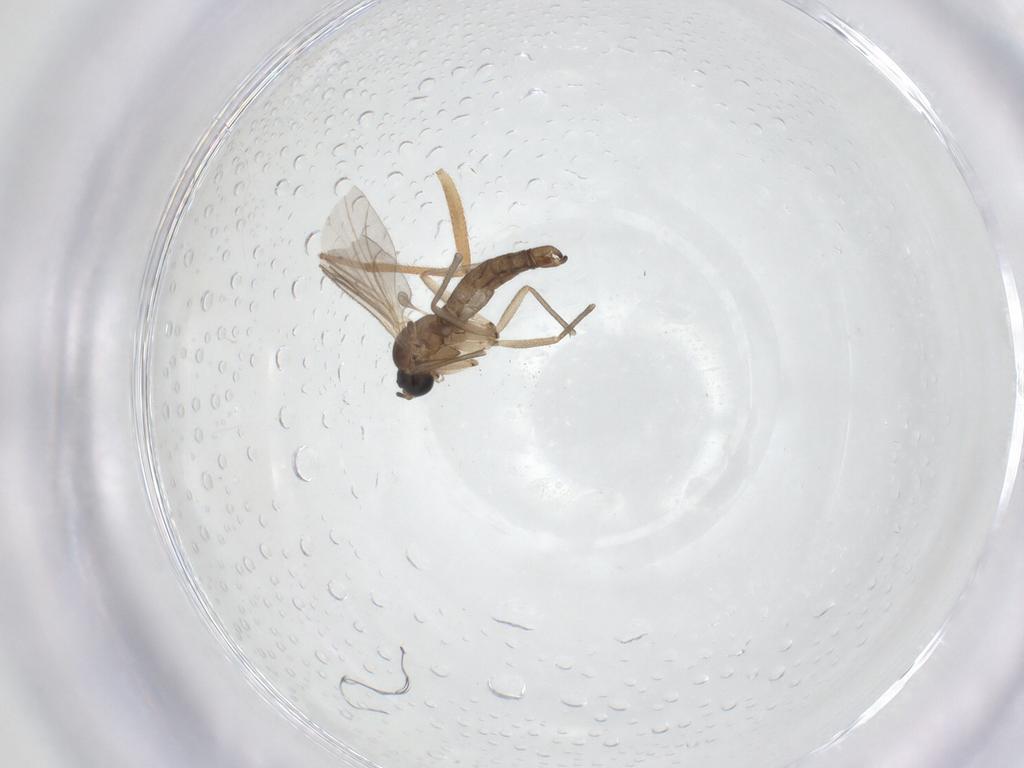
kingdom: Animalia
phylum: Arthropoda
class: Insecta
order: Diptera
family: Sciaridae
